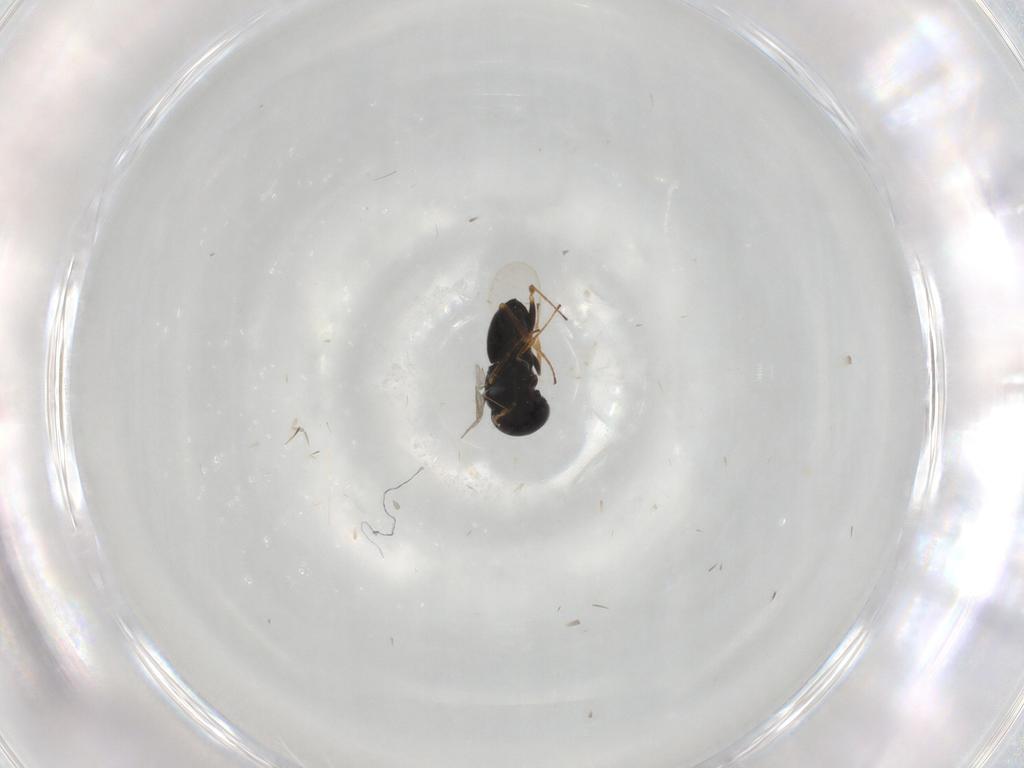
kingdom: Animalia
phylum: Arthropoda
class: Insecta
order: Coleoptera
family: Curculionidae
